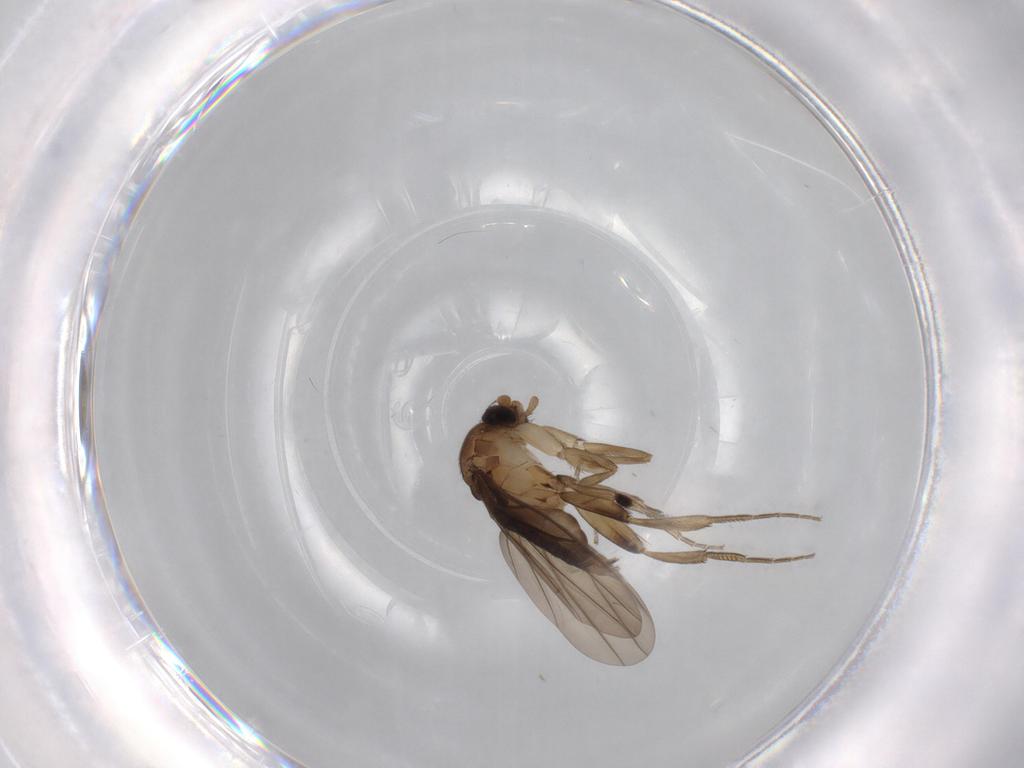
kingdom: Animalia
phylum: Arthropoda
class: Insecta
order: Diptera
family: Phoridae
